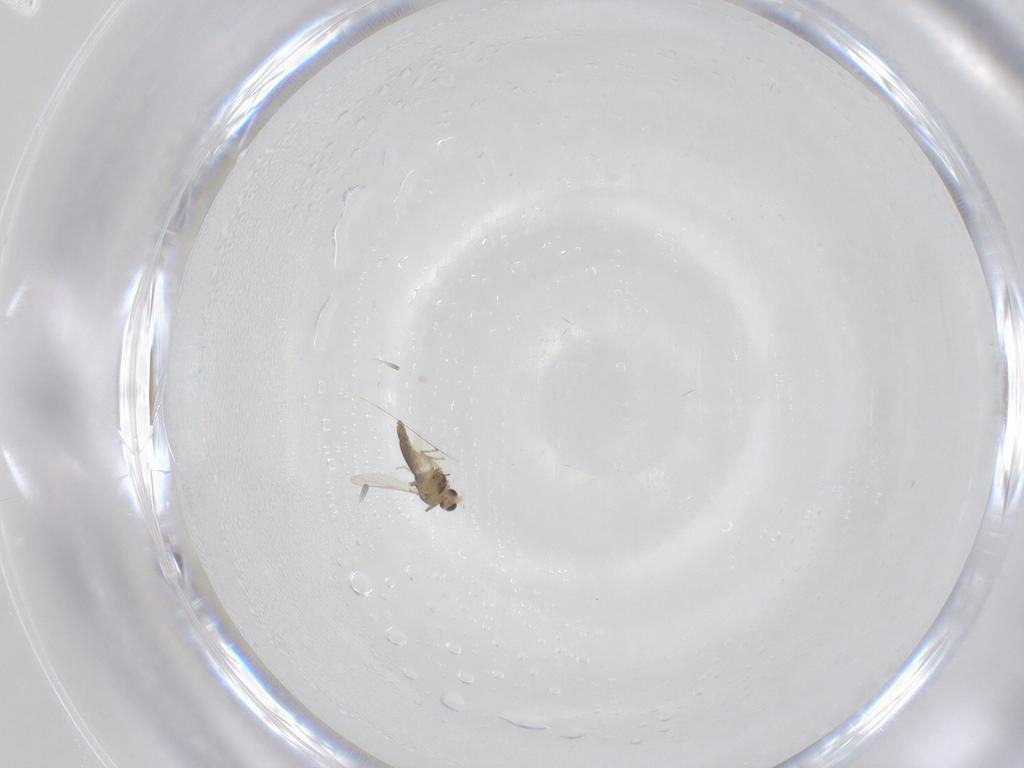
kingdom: Animalia
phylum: Arthropoda
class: Insecta
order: Diptera
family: Chironomidae
